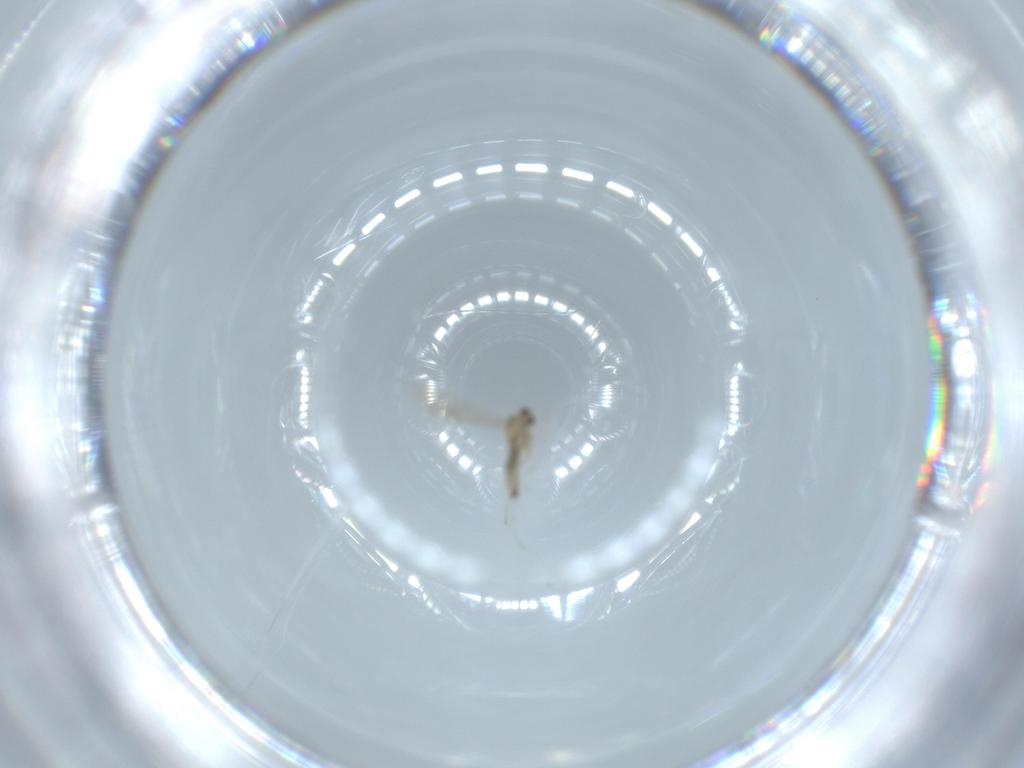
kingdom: Animalia
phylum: Arthropoda
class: Insecta
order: Diptera
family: Cecidomyiidae
